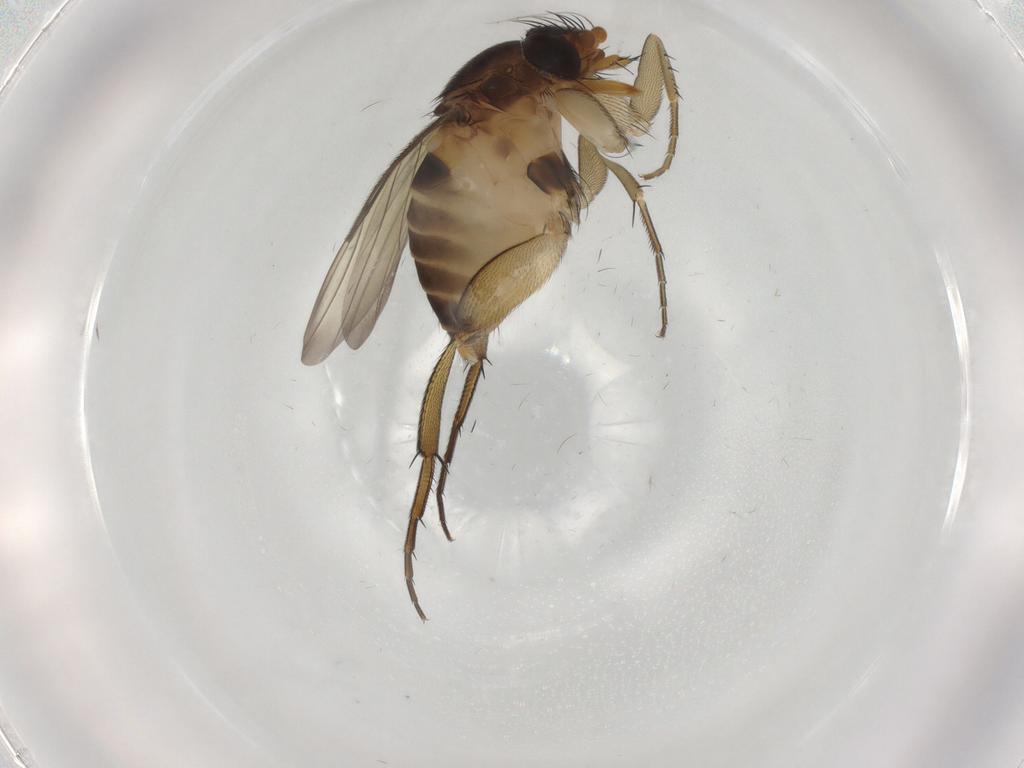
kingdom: Animalia
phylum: Arthropoda
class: Insecta
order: Diptera
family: Phoridae
